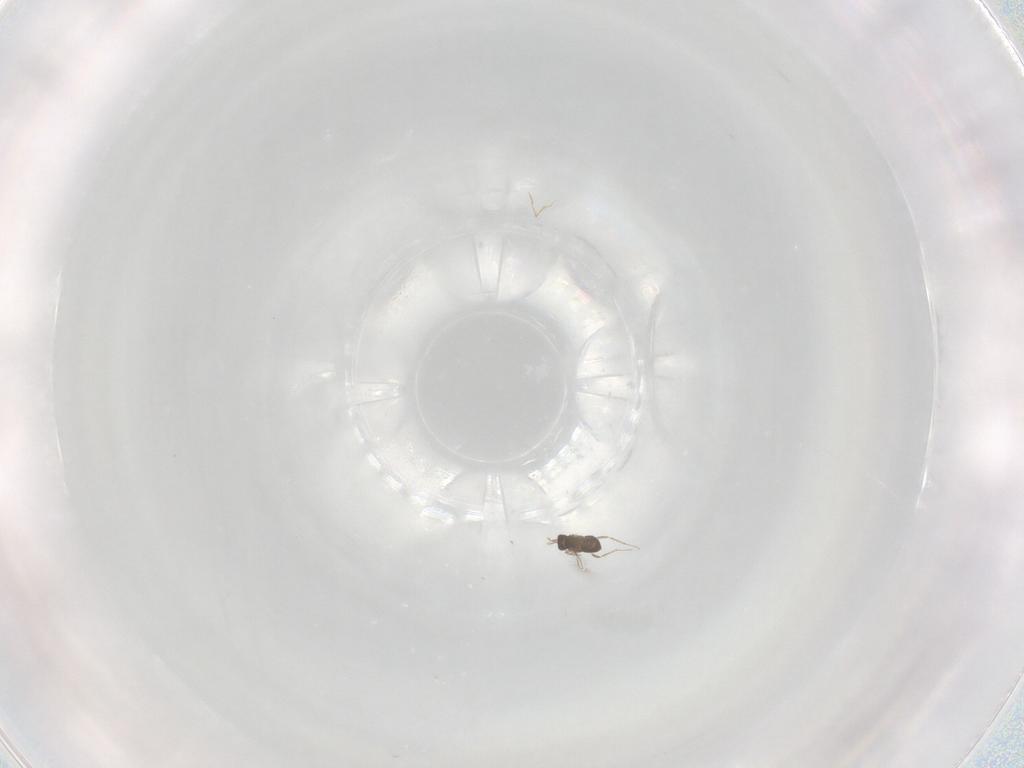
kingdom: Animalia
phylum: Arthropoda
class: Insecta
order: Hymenoptera
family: Mymaridae
